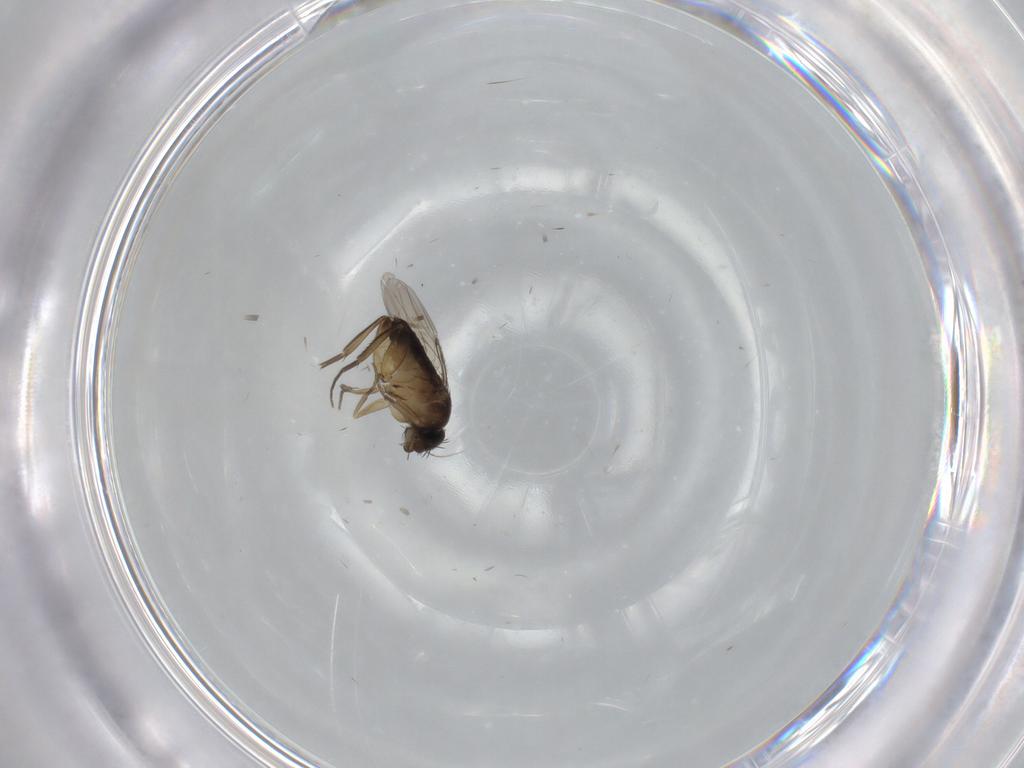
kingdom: Animalia
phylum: Arthropoda
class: Insecta
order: Diptera
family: Phoridae
